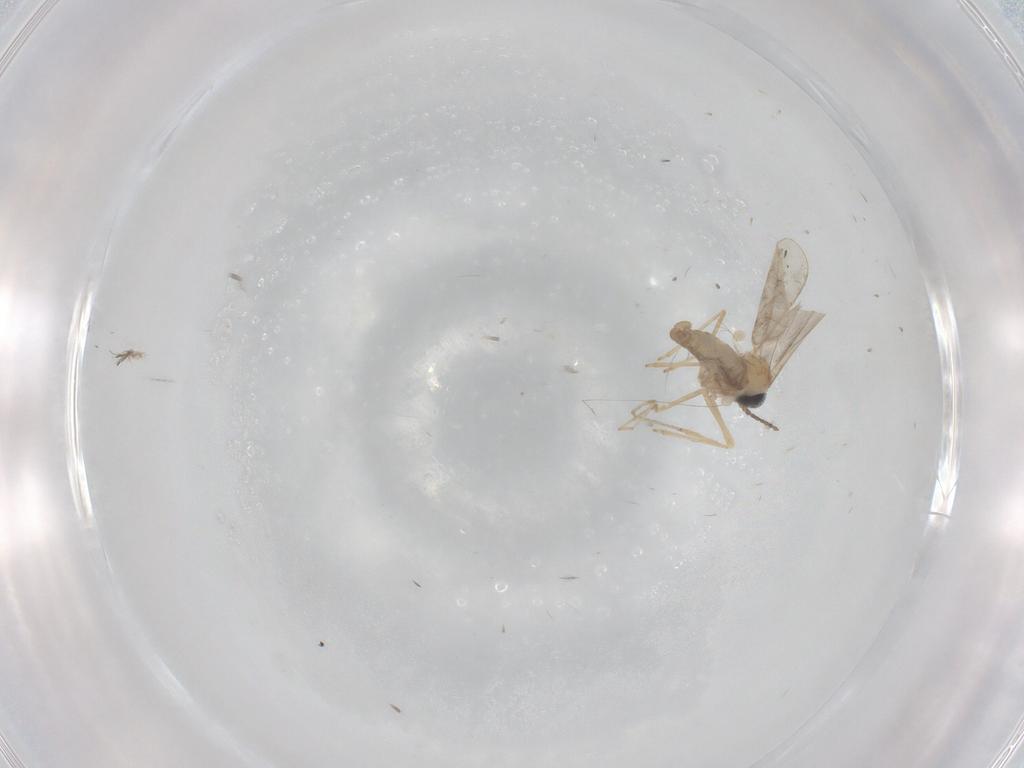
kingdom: Animalia
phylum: Arthropoda
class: Insecta
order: Diptera
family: Cecidomyiidae
